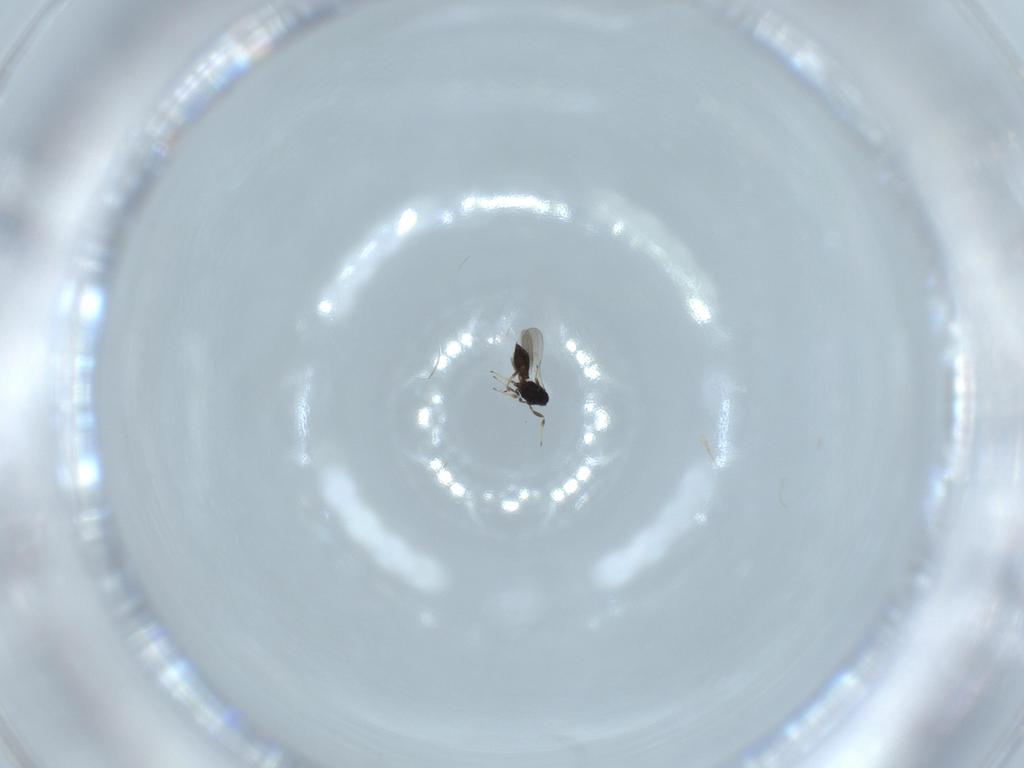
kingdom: Animalia
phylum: Arthropoda
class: Insecta
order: Hymenoptera
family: Scelionidae
